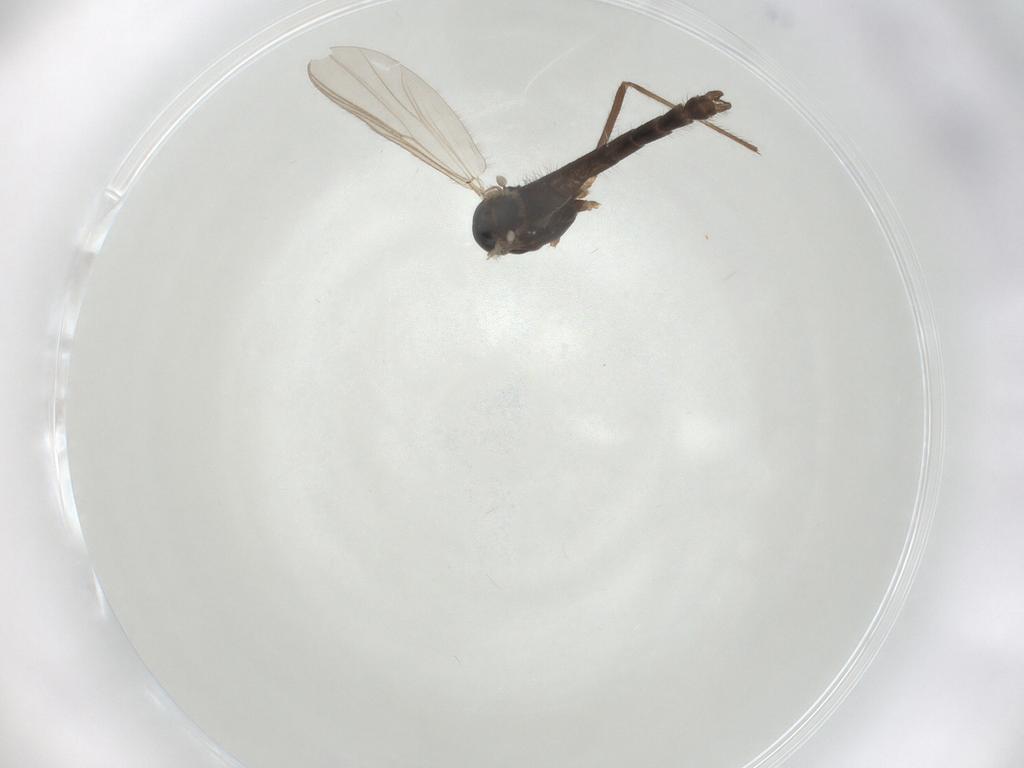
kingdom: Animalia
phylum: Arthropoda
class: Insecta
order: Diptera
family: Chironomidae
